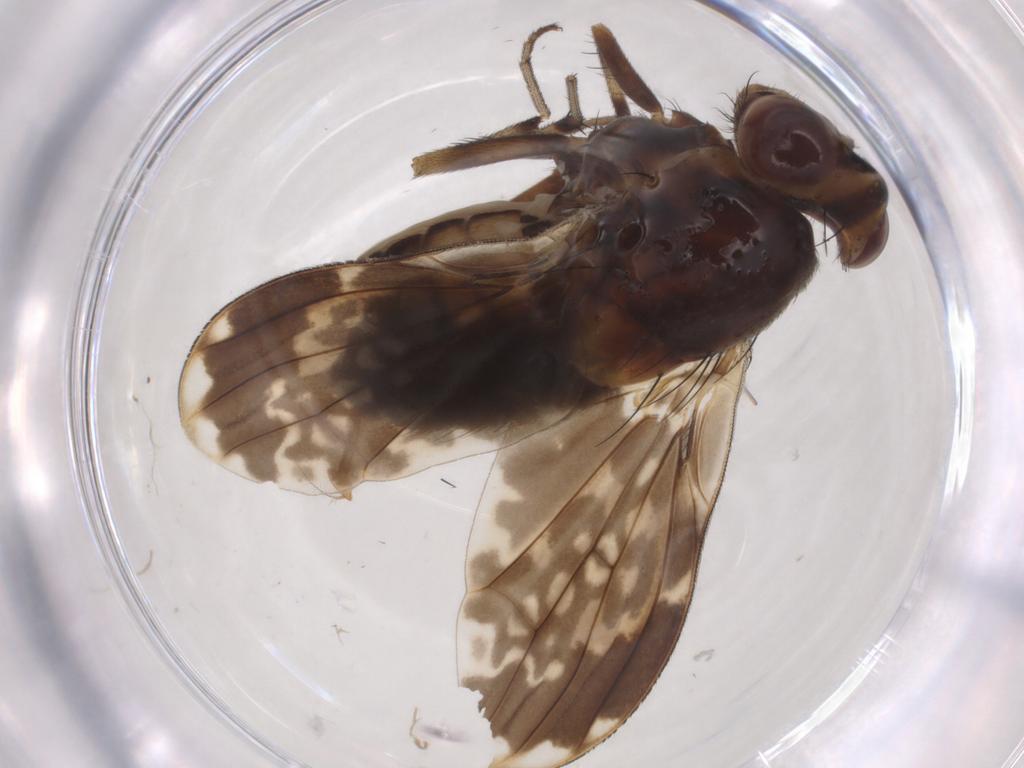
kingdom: Animalia
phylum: Arthropoda
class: Insecta
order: Diptera
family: Lauxaniidae
